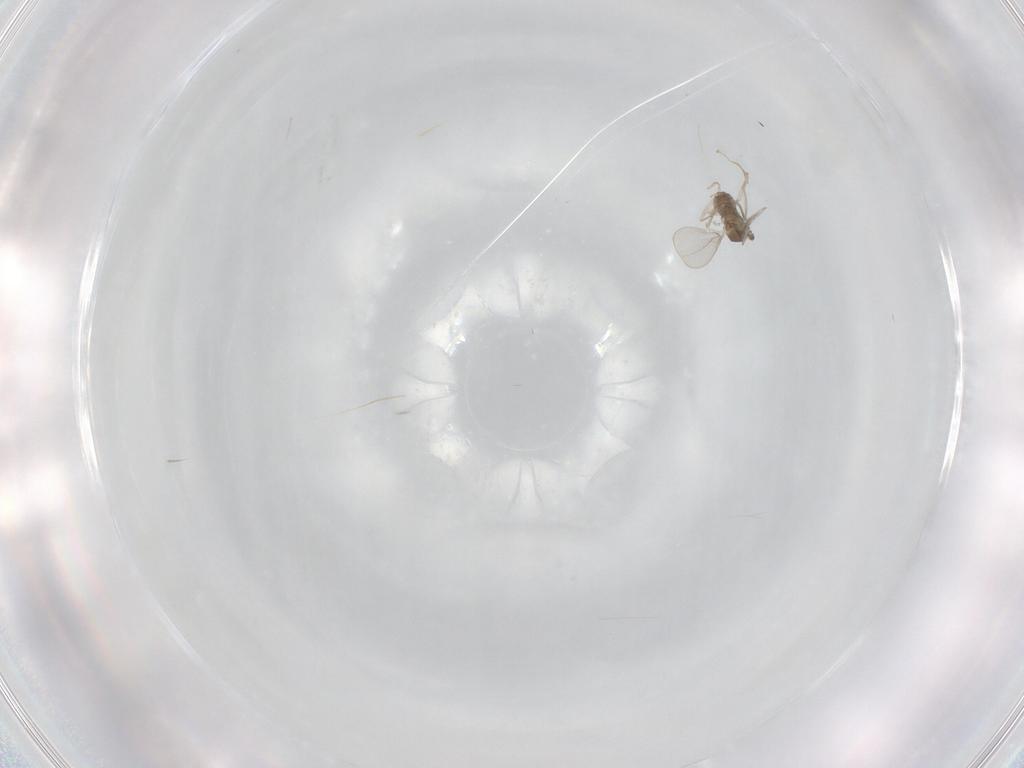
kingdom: Animalia
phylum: Arthropoda
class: Insecta
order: Diptera
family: Cecidomyiidae
